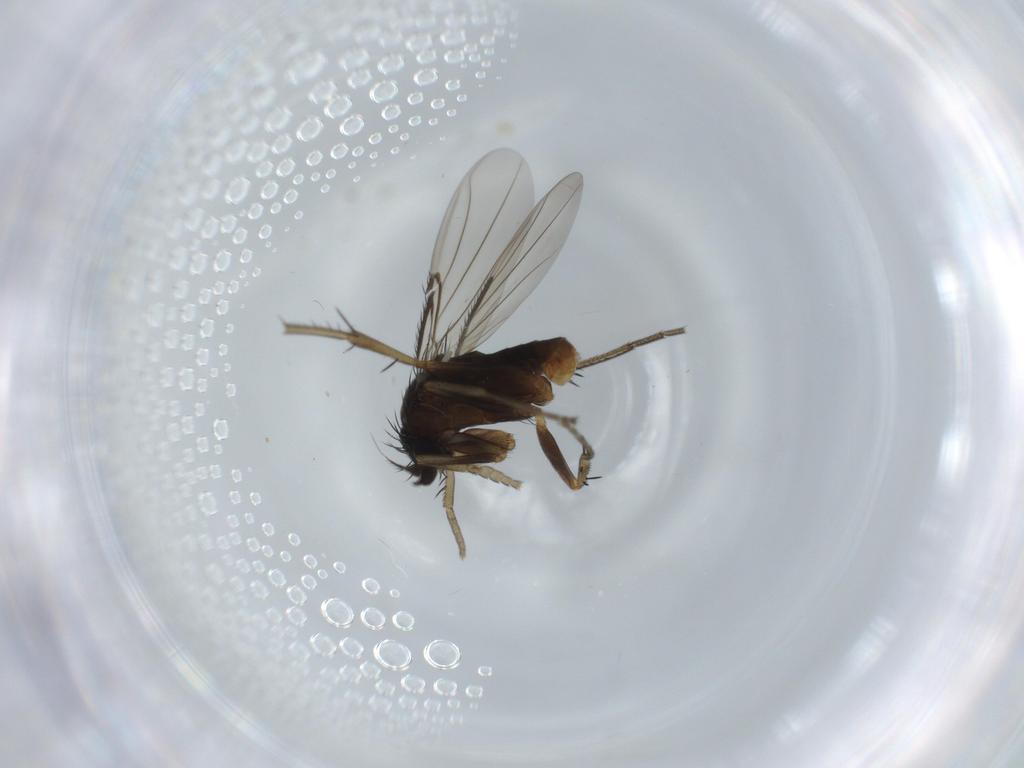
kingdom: Animalia
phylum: Arthropoda
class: Insecta
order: Diptera
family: Phoridae
